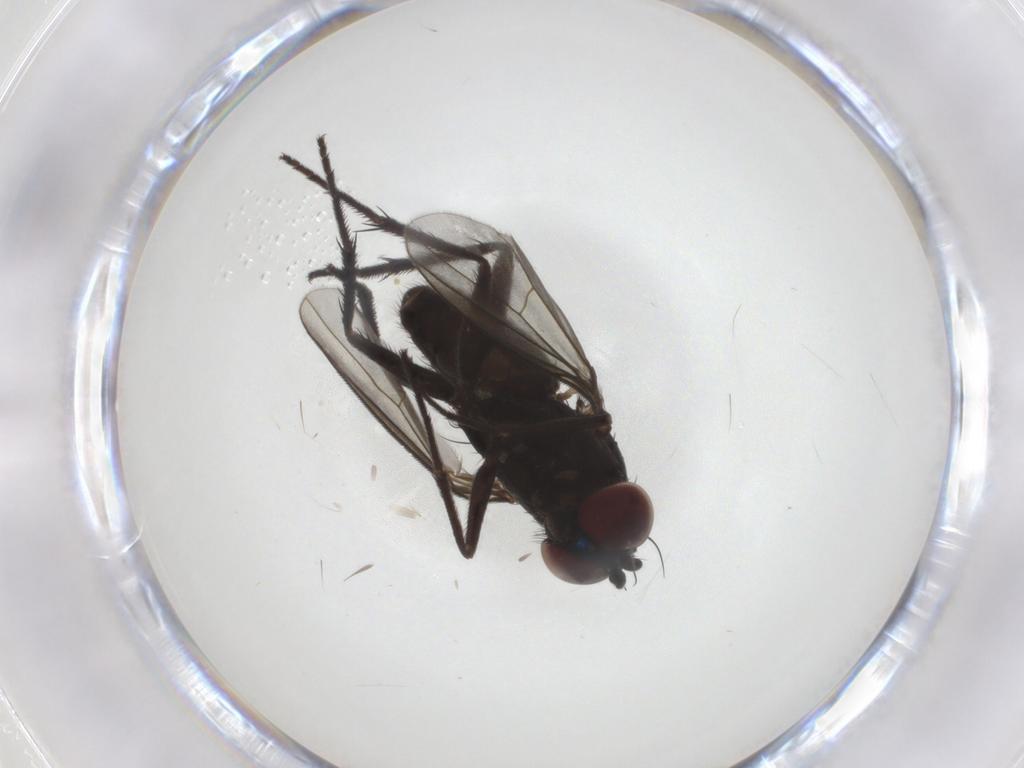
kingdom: Animalia
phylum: Arthropoda
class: Insecta
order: Diptera
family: Dolichopodidae
